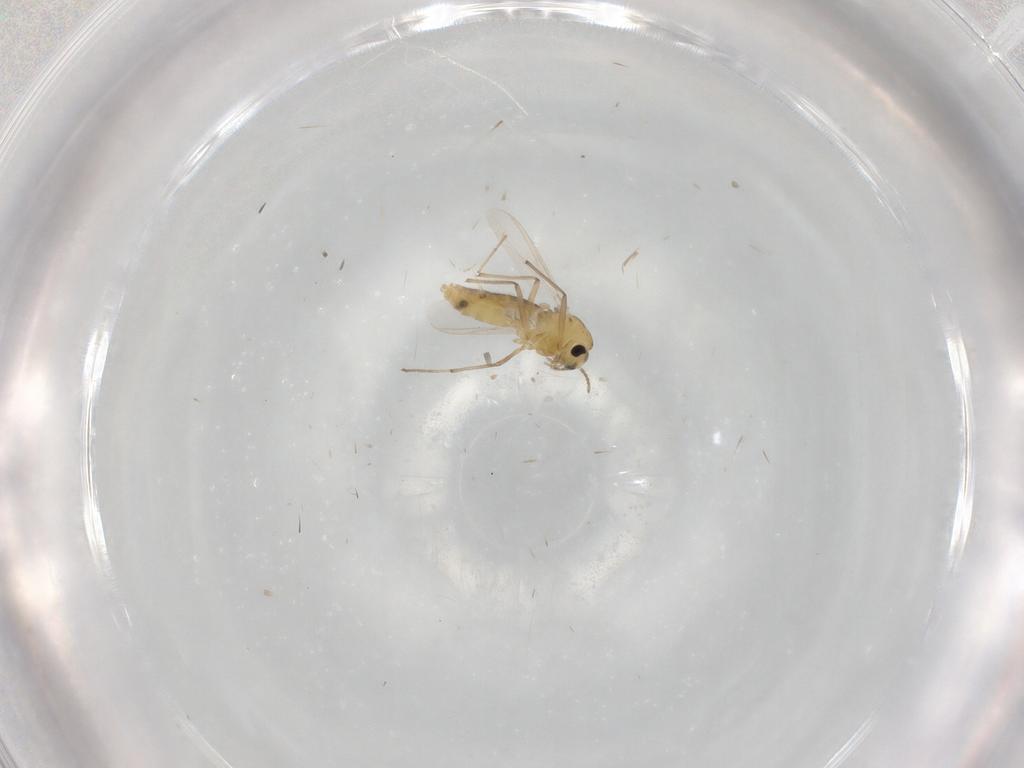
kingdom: Animalia
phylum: Arthropoda
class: Insecta
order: Diptera
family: Chironomidae
